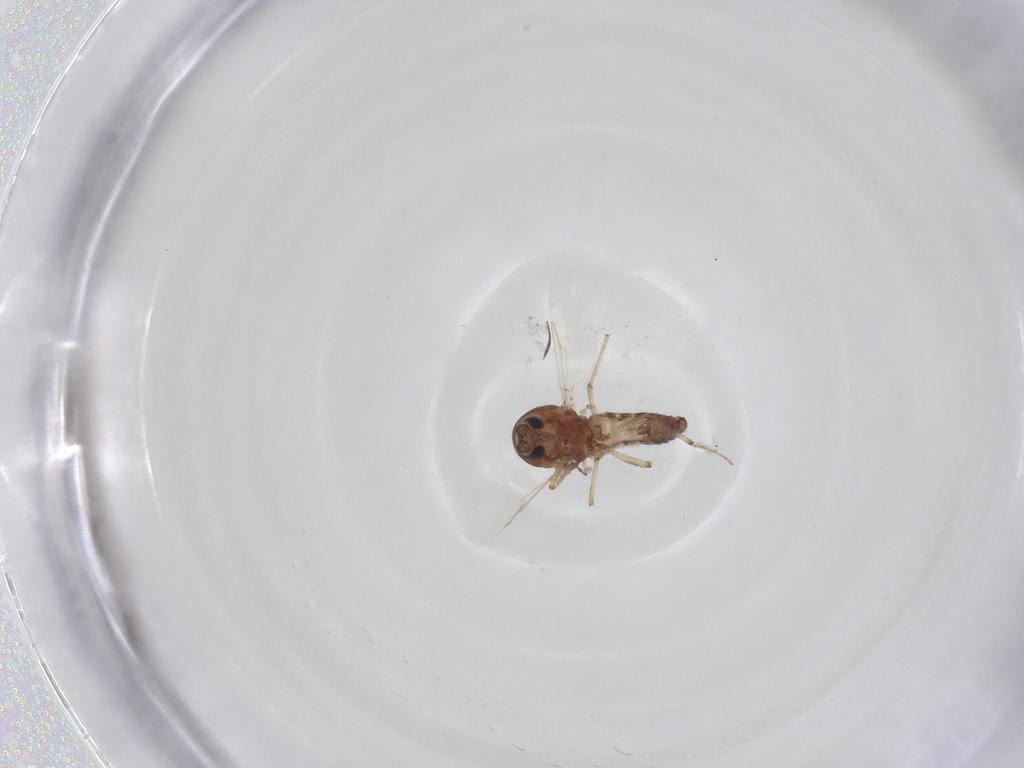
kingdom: Animalia
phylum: Arthropoda
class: Insecta
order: Diptera
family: Ceratopogonidae
